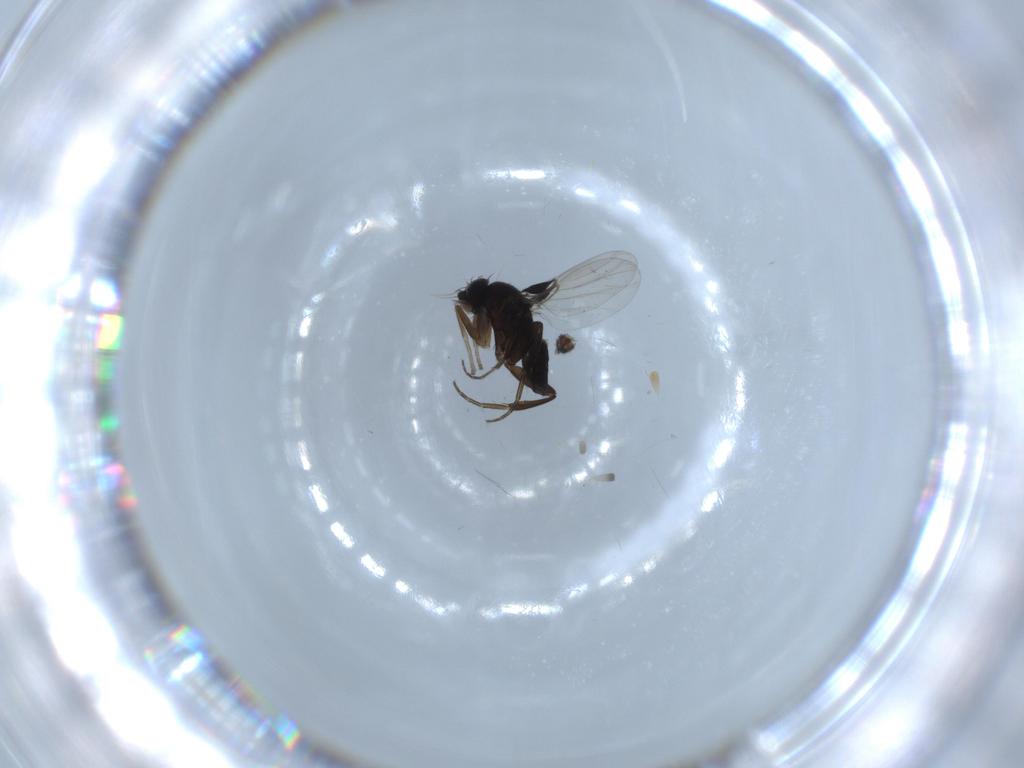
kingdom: Animalia
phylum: Arthropoda
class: Insecta
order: Diptera
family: Phoridae
